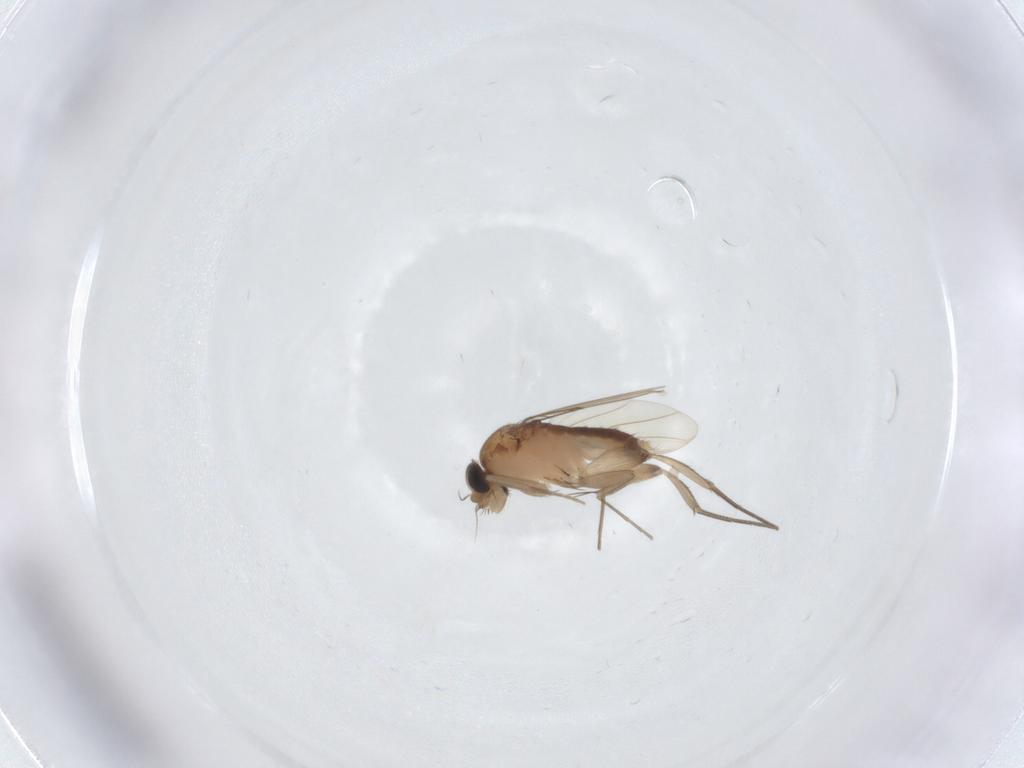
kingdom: Animalia
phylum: Arthropoda
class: Insecta
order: Diptera
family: Phoridae
